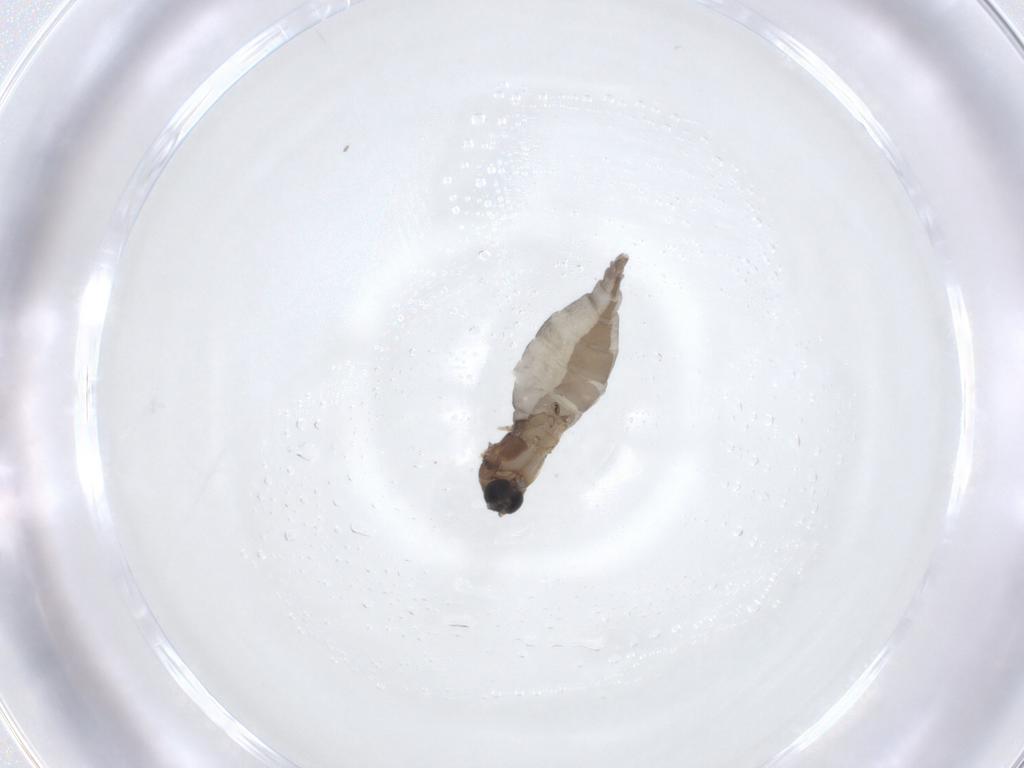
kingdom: Animalia
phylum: Arthropoda
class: Insecta
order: Diptera
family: Sciaridae
